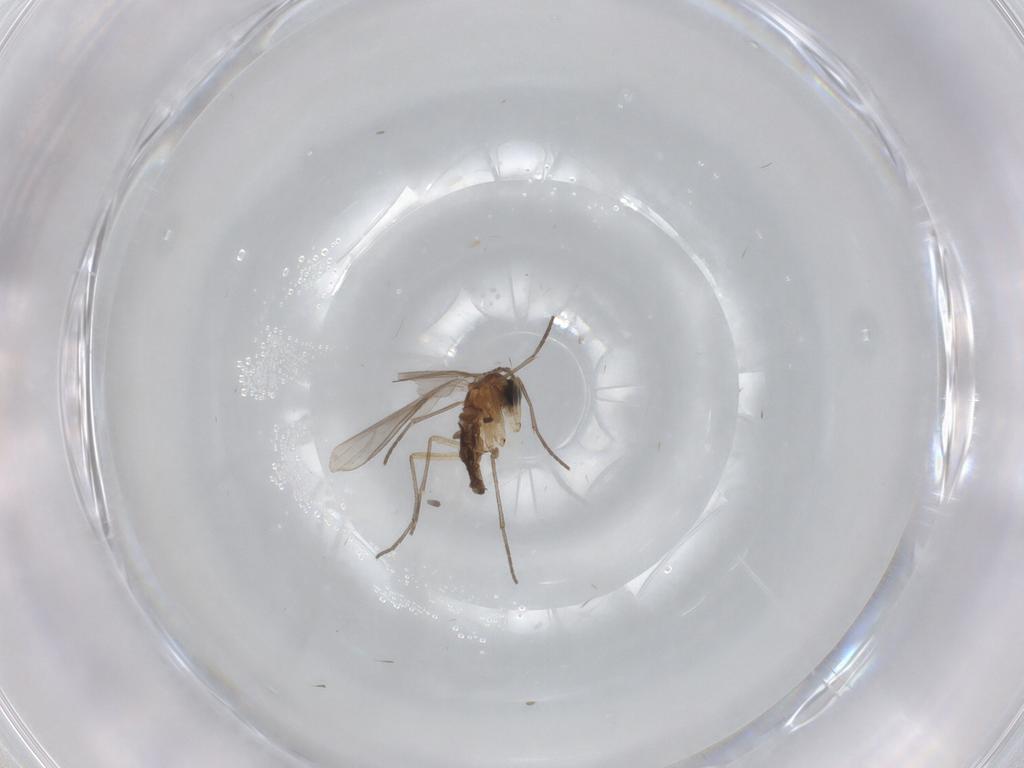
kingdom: Animalia
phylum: Arthropoda
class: Insecta
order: Diptera
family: Sciaridae
